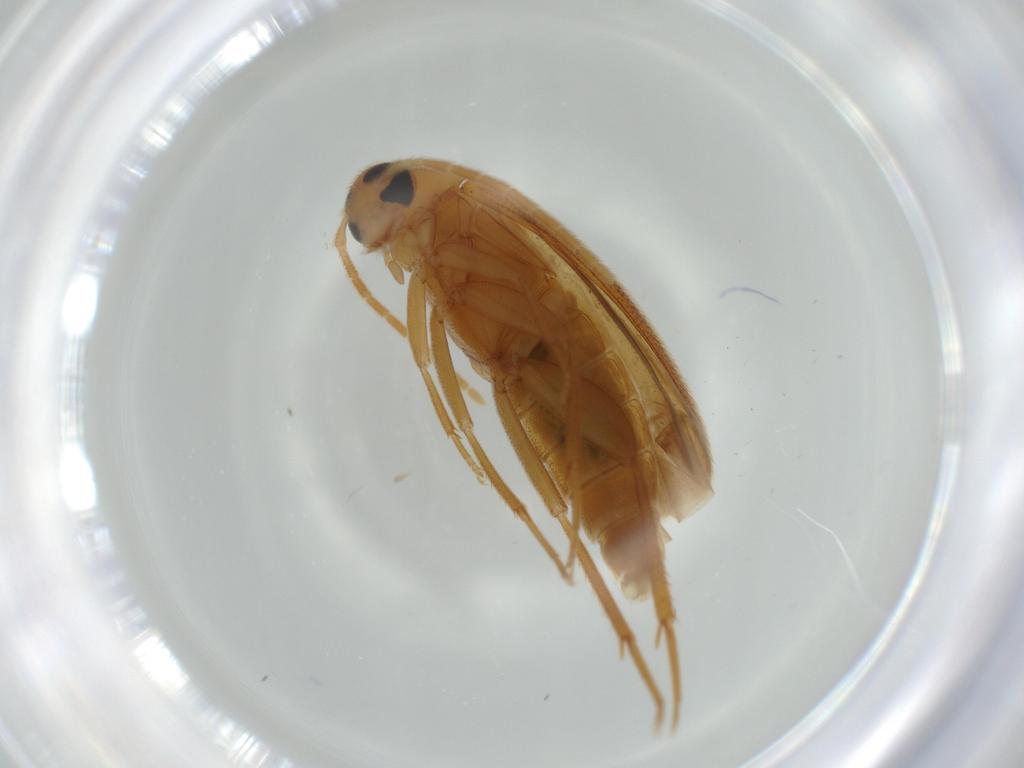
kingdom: Animalia
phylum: Arthropoda
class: Insecta
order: Coleoptera
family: Scraptiidae
